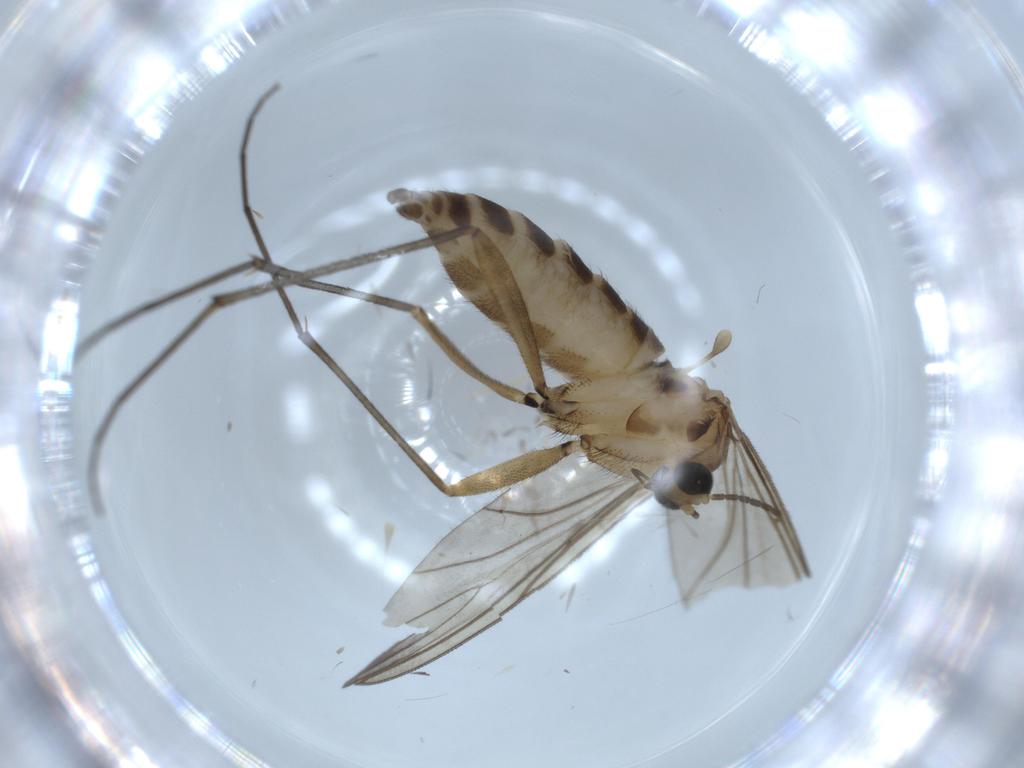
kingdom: Animalia
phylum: Arthropoda
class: Insecta
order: Diptera
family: Sciaridae
